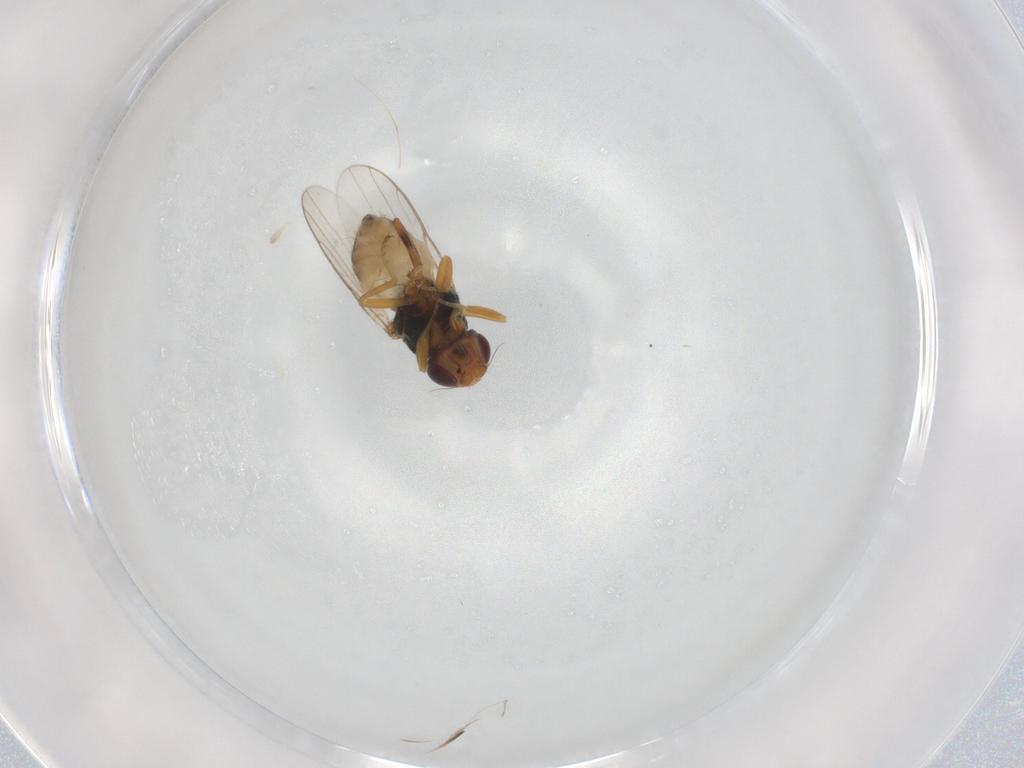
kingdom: Animalia
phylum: Arthropoda
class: Insecta
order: Diptera
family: Chloropidae
